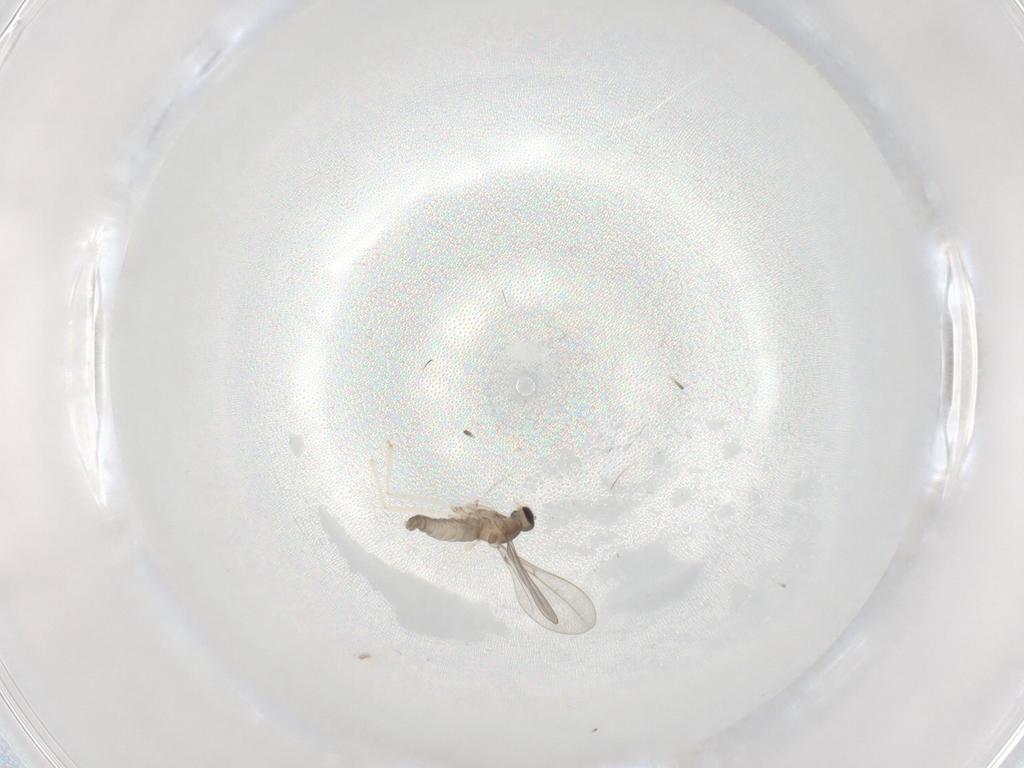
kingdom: Animalia
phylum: Arthropoda
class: Insecta
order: Diptera
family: Cecidomyiidae
